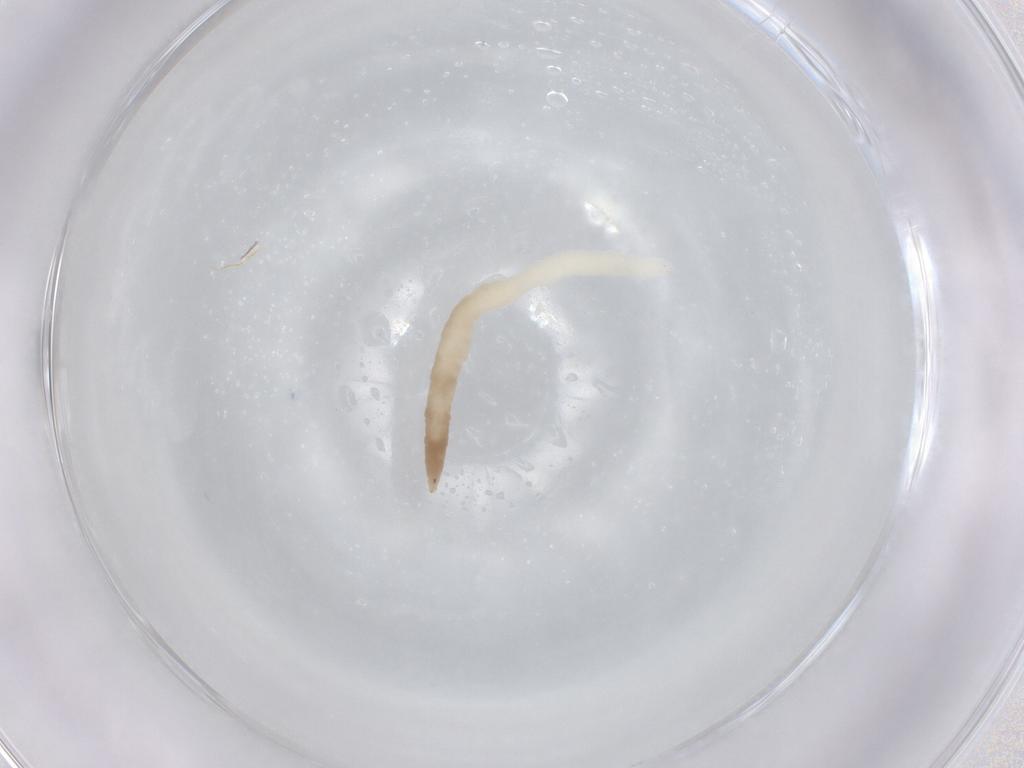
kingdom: Animalia
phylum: Arthropoda
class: Insecta
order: Diptera
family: Cecidomyiidae
